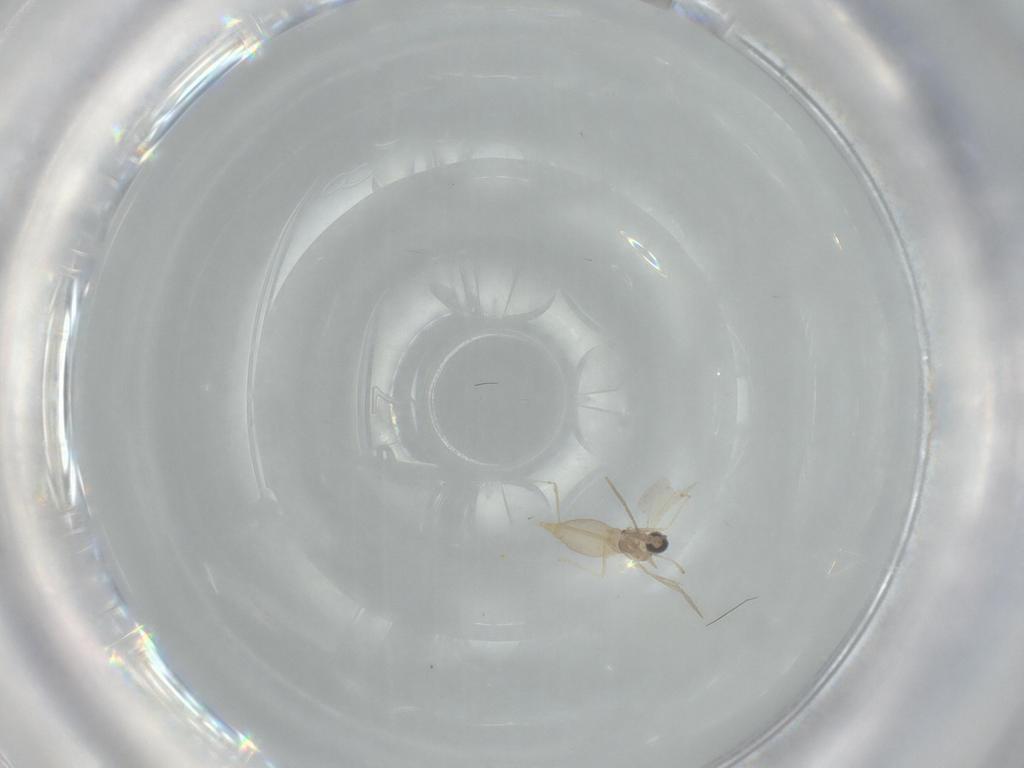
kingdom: Animalia
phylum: Arthropoda
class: Insecta
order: Diptera
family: Cecidomyiidae
